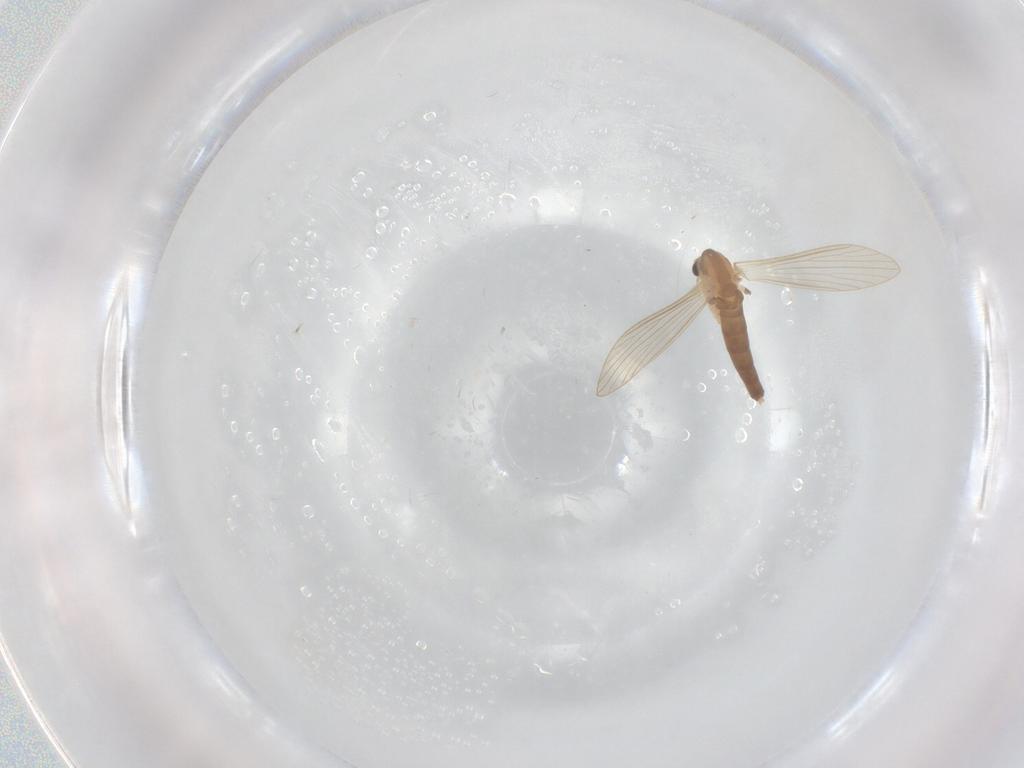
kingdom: Animalia
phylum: Arthropoda
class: Insecta
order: Diptera
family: Psychodidae
